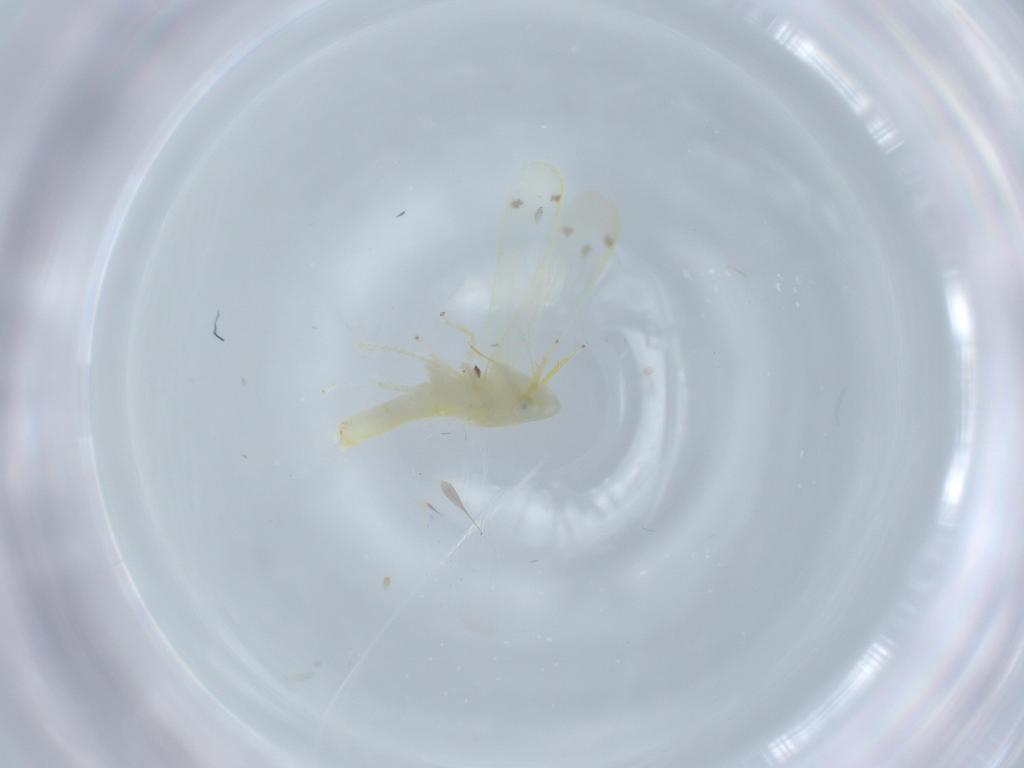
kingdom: Animalia
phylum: Arthropoda
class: Insecta
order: Hemiptera
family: Cicadellidae
